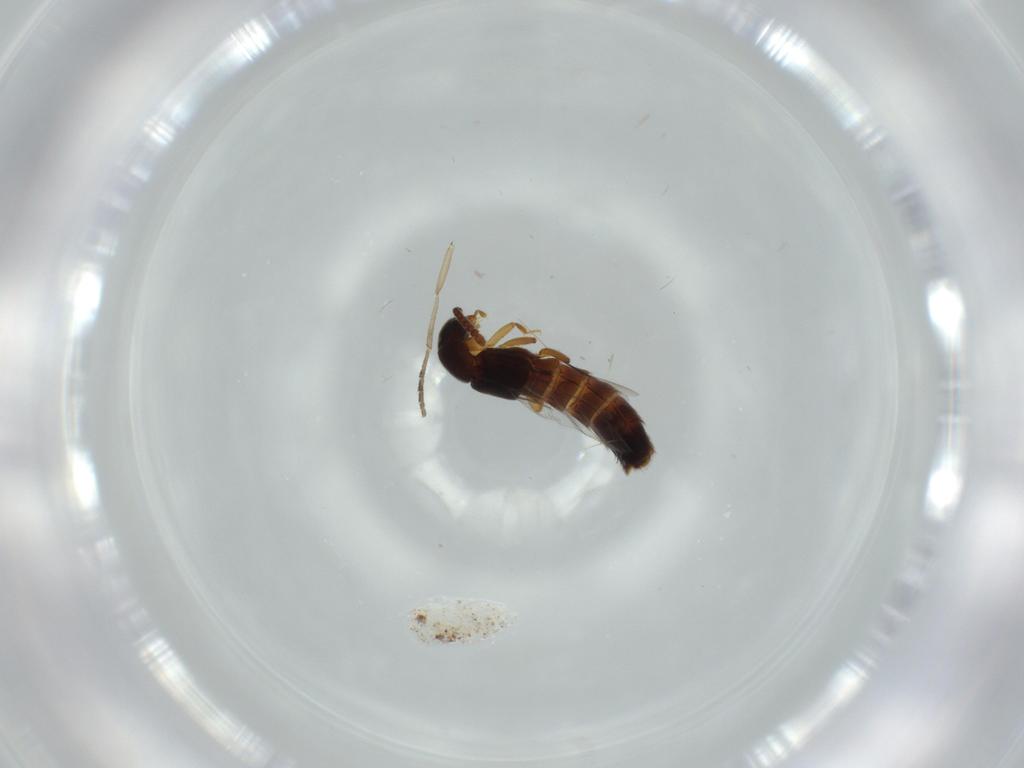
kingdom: Animalia
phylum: Arthropoda
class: Insecta
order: Coleoptera
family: Staphylinidae
